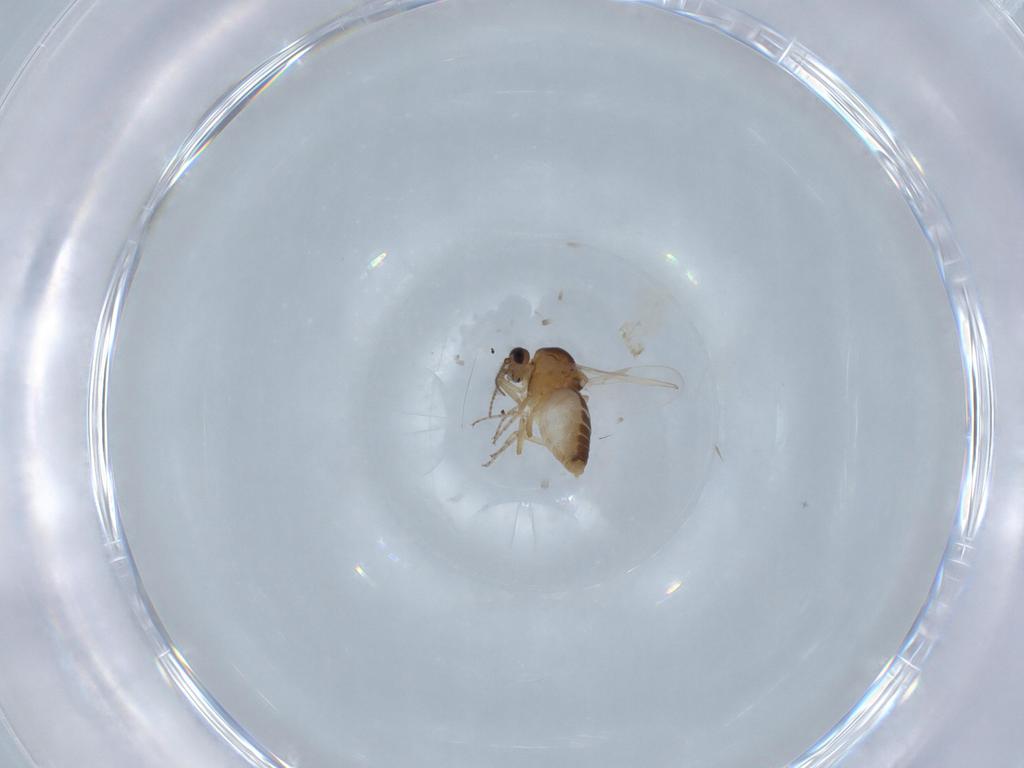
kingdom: Animalia
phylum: Arthropoda
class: Insecta
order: Diptera
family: Ceratopogonidae
